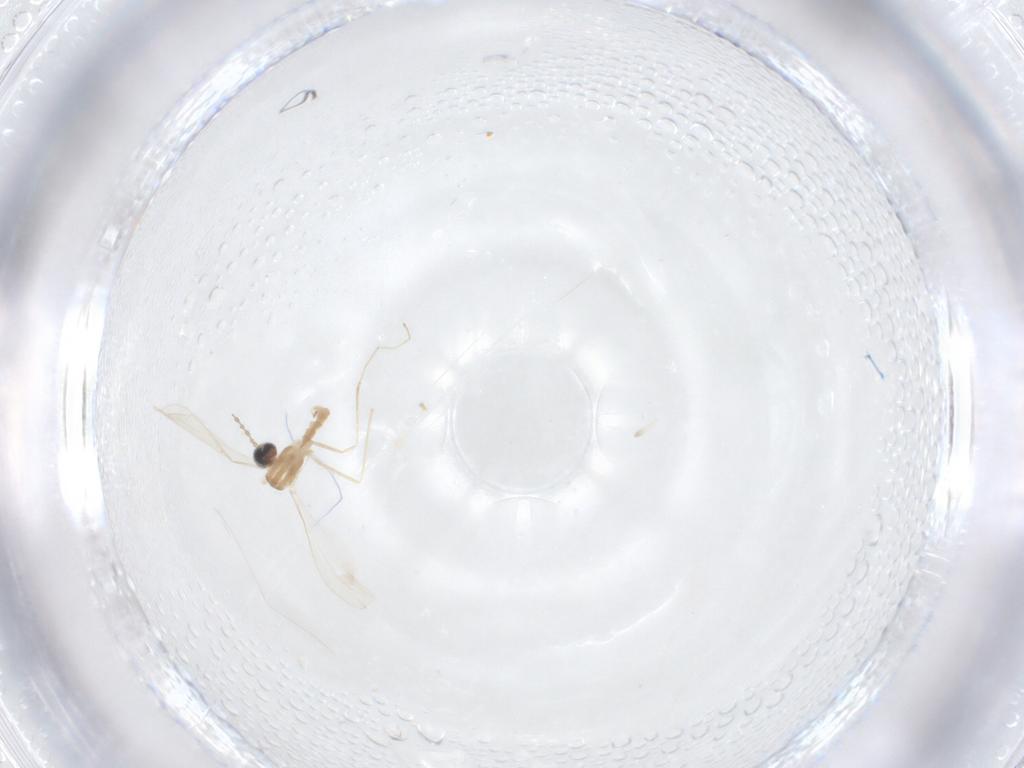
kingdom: Animalia
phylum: Arthropoda
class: Insecta
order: Diptera
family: Sciaridae
